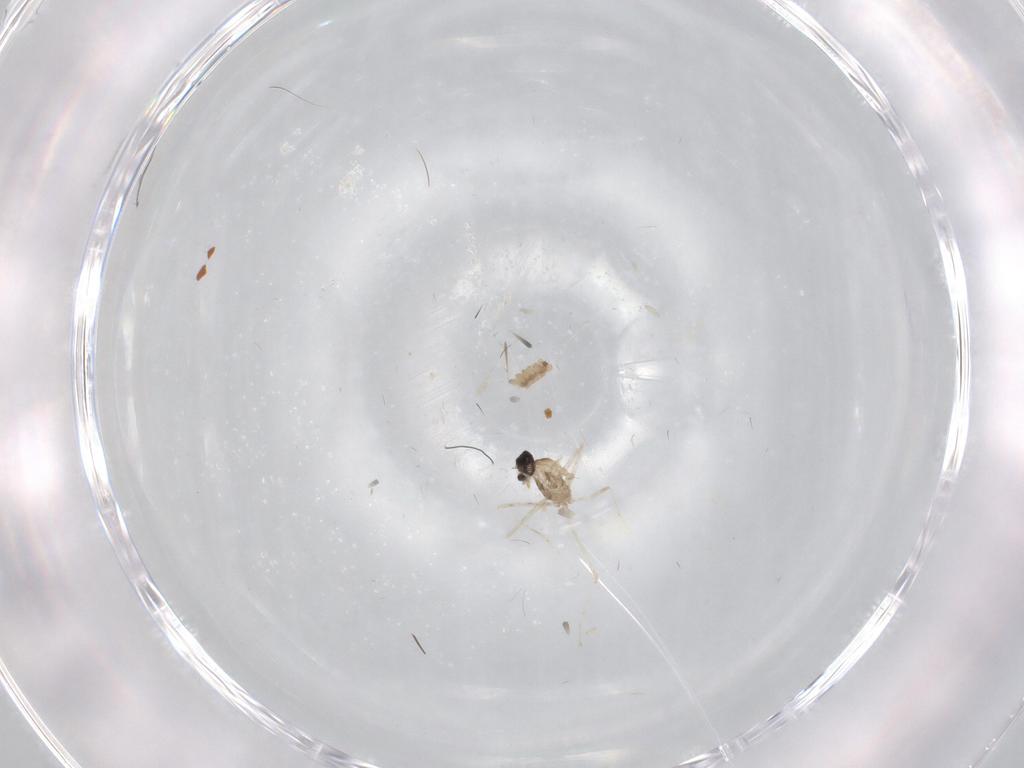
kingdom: Animalia
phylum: Arthropoda
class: Insecta
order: Diptera
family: Cecidomyiidae
